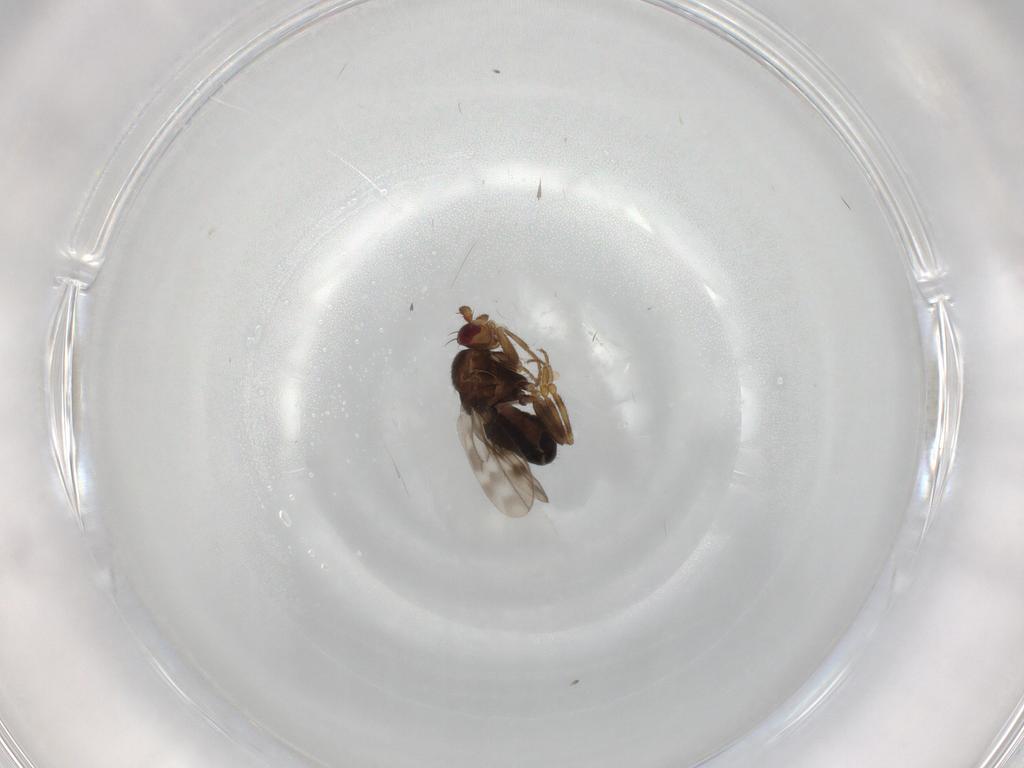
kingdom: Animalia
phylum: Arthropoda
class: Insecta
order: Diptera
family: Sphaeroceridae
